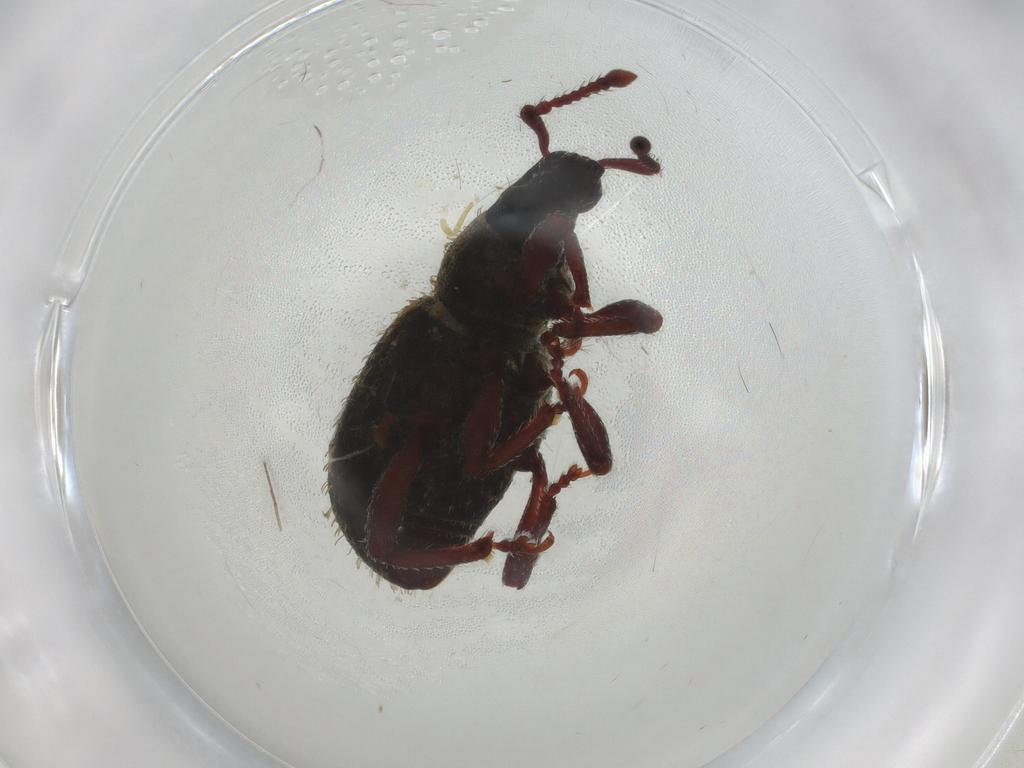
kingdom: Animalia
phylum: Arthropoda
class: Insecta
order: Coleoptera
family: Curculionidae
